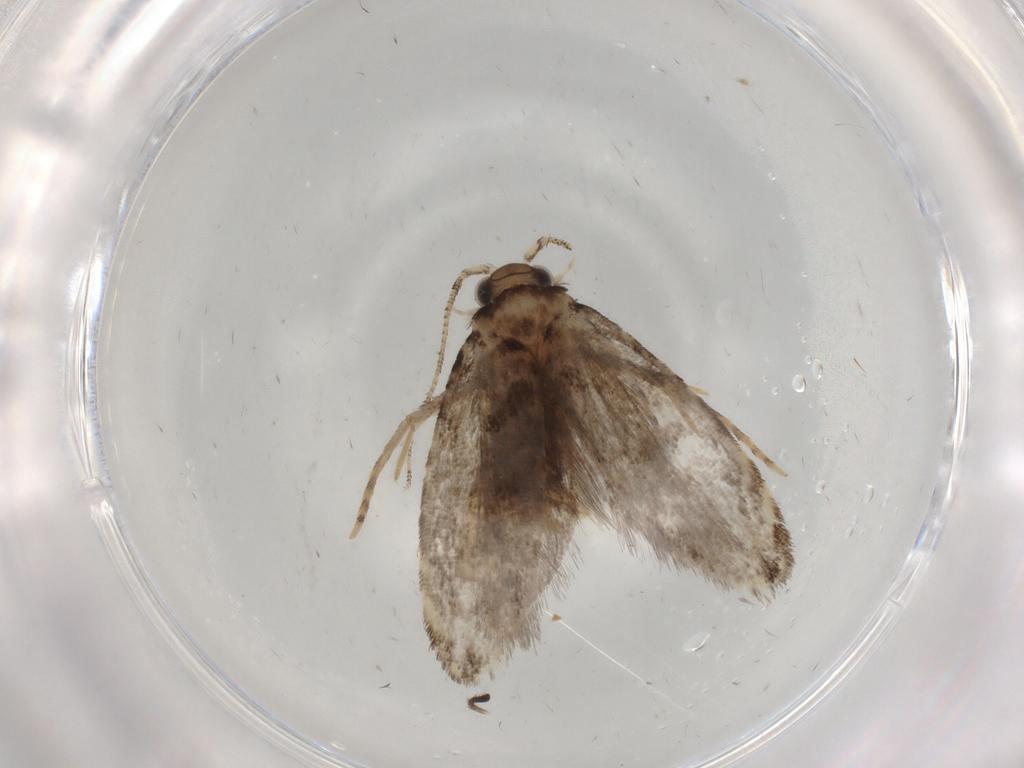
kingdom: Animalia
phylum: Arthropoda
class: Insecta
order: Lepidoptera
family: Tineidae
